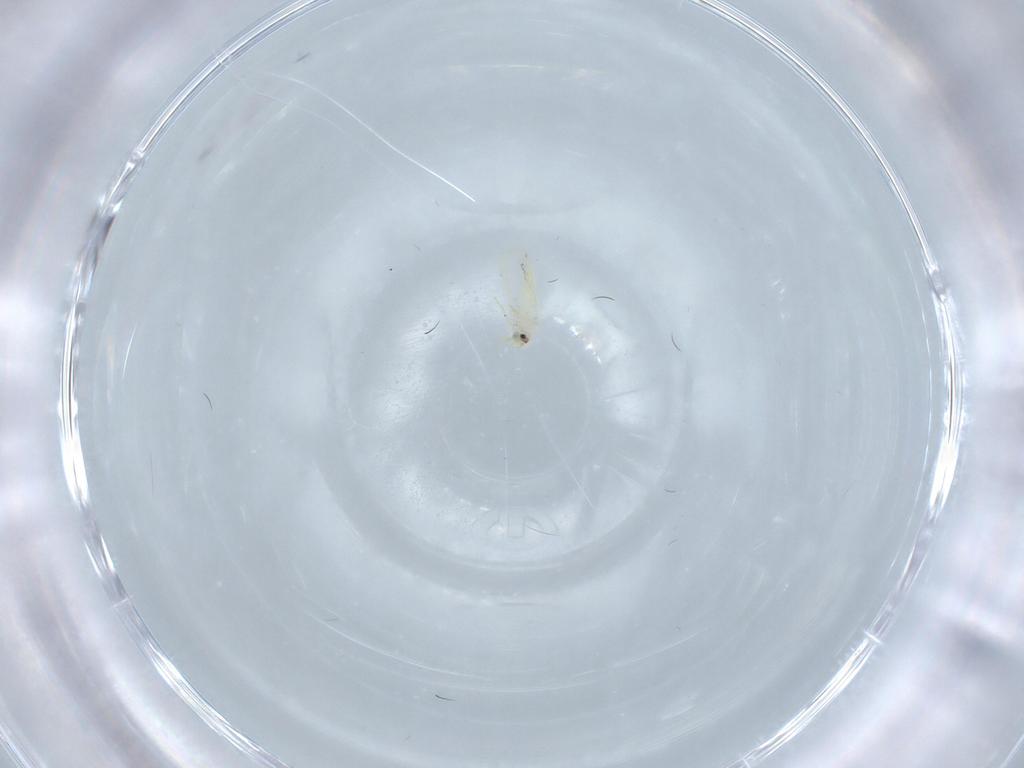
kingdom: Animalia
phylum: Arthropoda
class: Insecta
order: Hemiptera
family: Aleyrodidae
